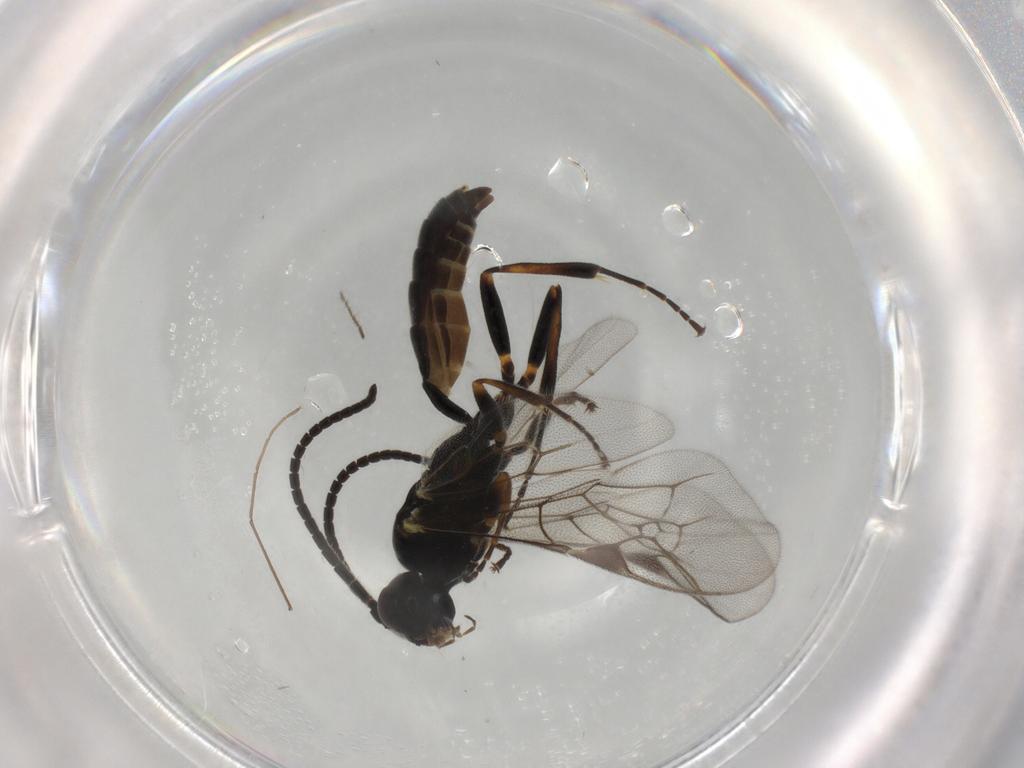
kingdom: Animalia
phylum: Arthropoda
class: Insecta
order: Hymenoptera
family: Ichneumonidae
